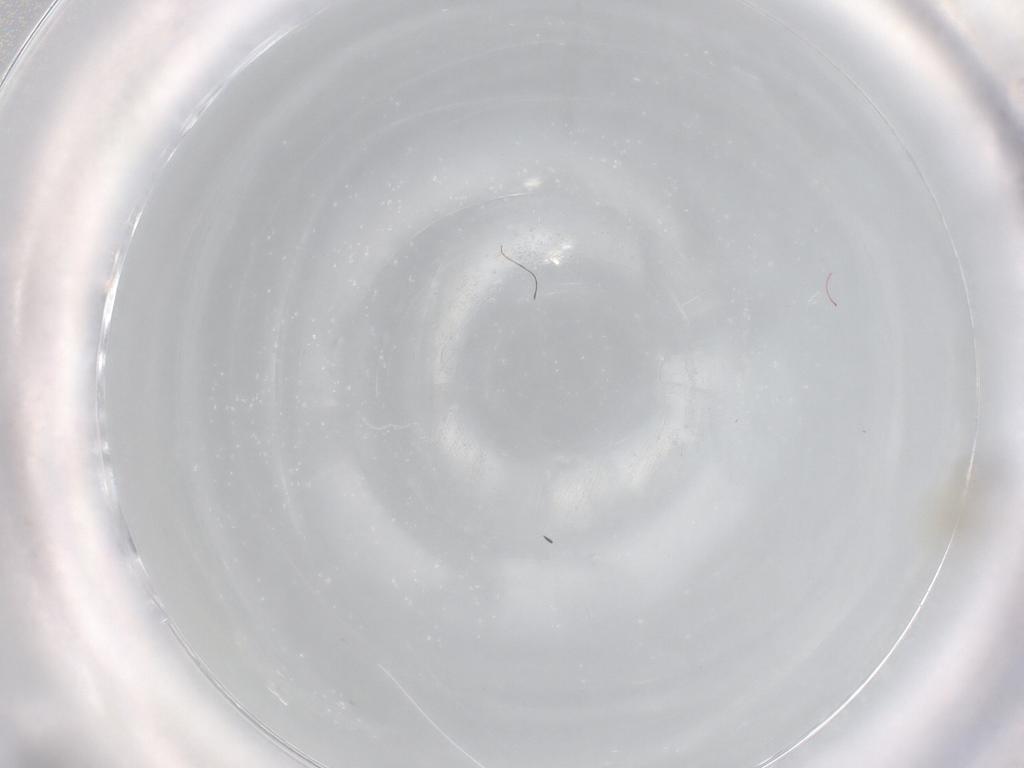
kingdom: Animalia
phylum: Arthropoda
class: Insecta
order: Diptera
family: Cecidomyiidae
